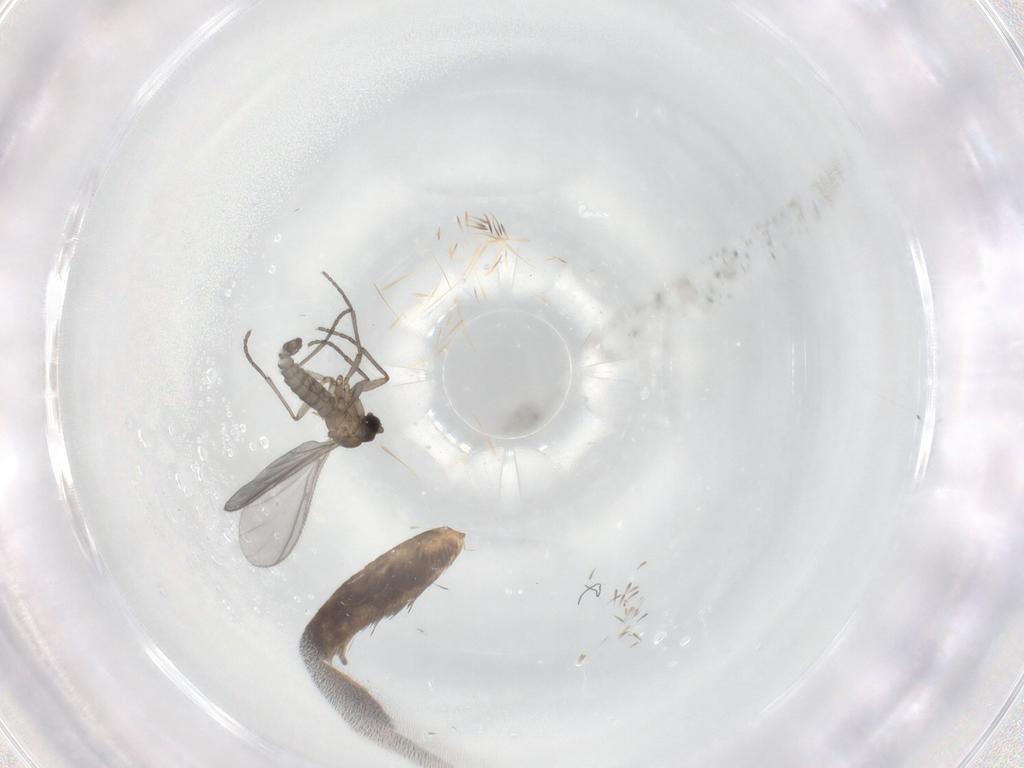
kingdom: Animalia
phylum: Arthropoda
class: Insecta
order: Diptera
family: Sciaridae
